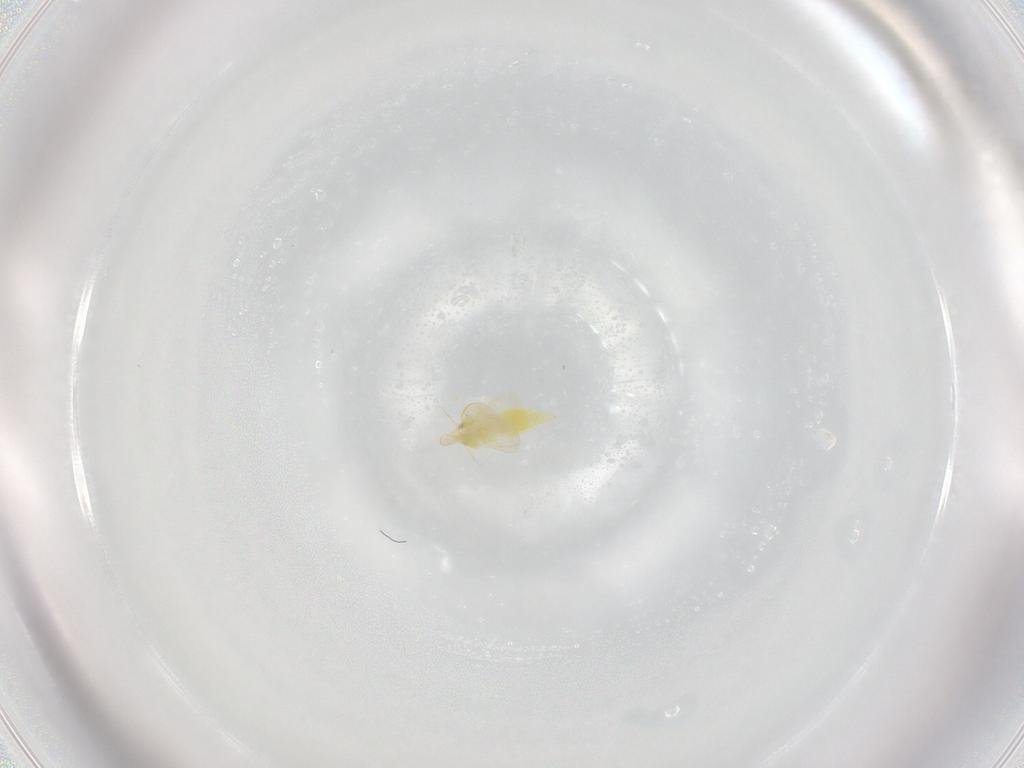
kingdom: Animalia
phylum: Arthropoda
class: Insecta
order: Hemiptera
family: Aleyrodidae
